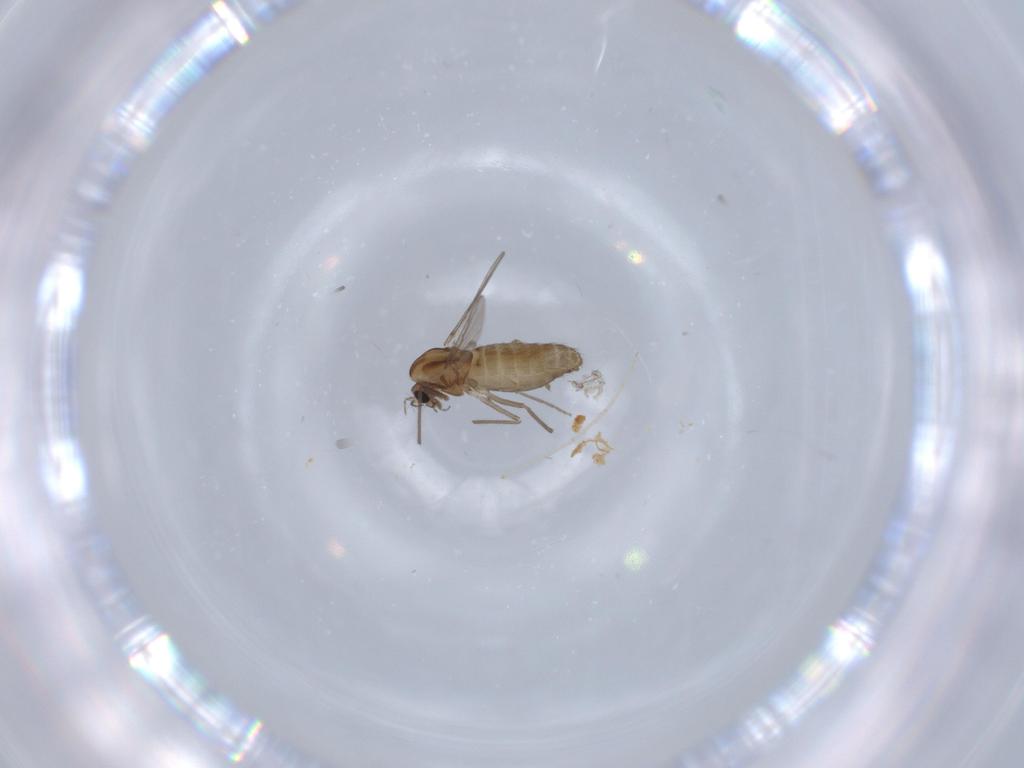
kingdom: Animalia
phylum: Arthropoda
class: Insecta
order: Diptera
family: Chironomidae
